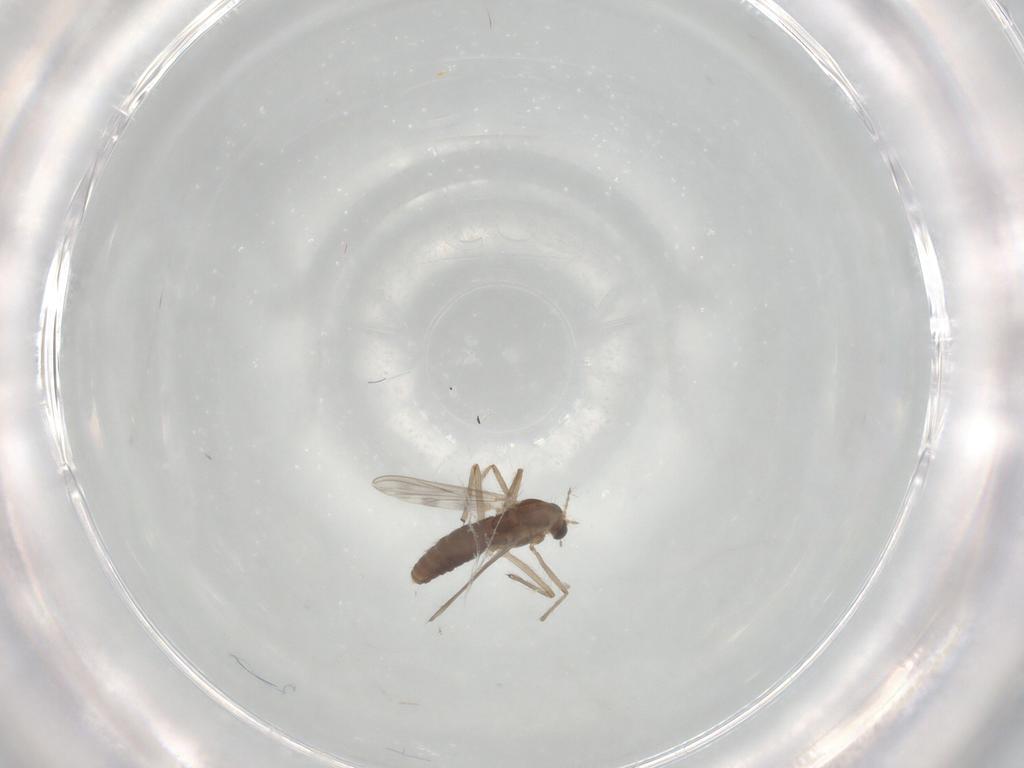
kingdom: Animalia
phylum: Arthropoda
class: Insecta
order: Diptera
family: Chironomidae
